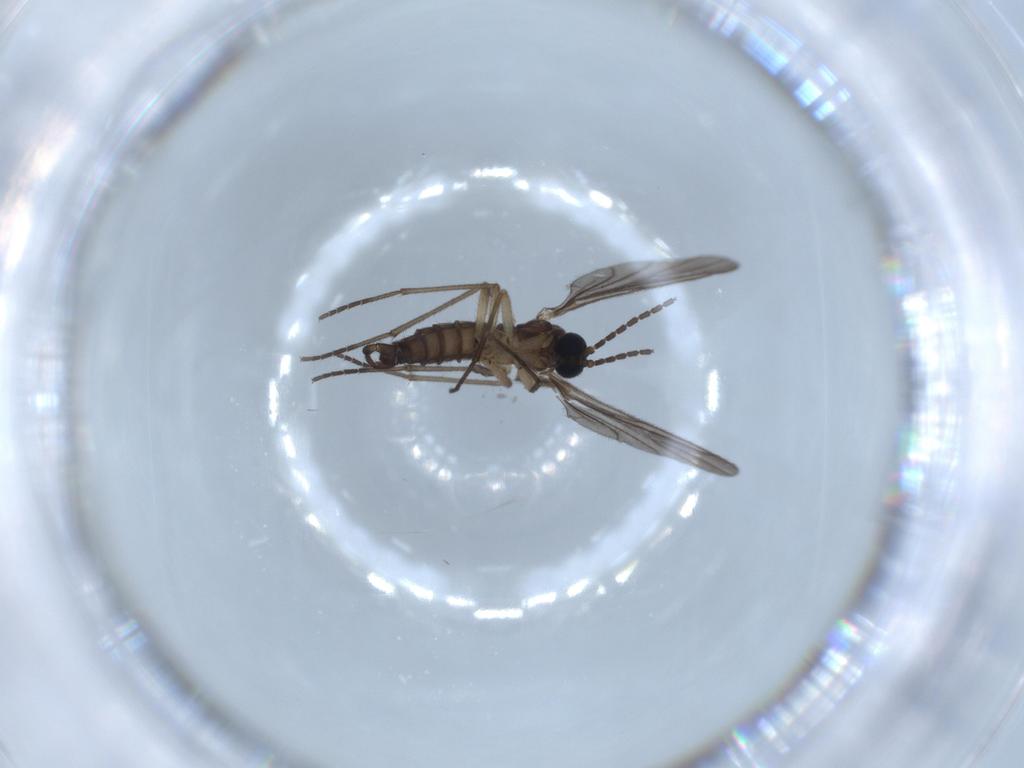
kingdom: Animalia
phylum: Arthropoda
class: Insecta
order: Diptera
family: Sciaridae
